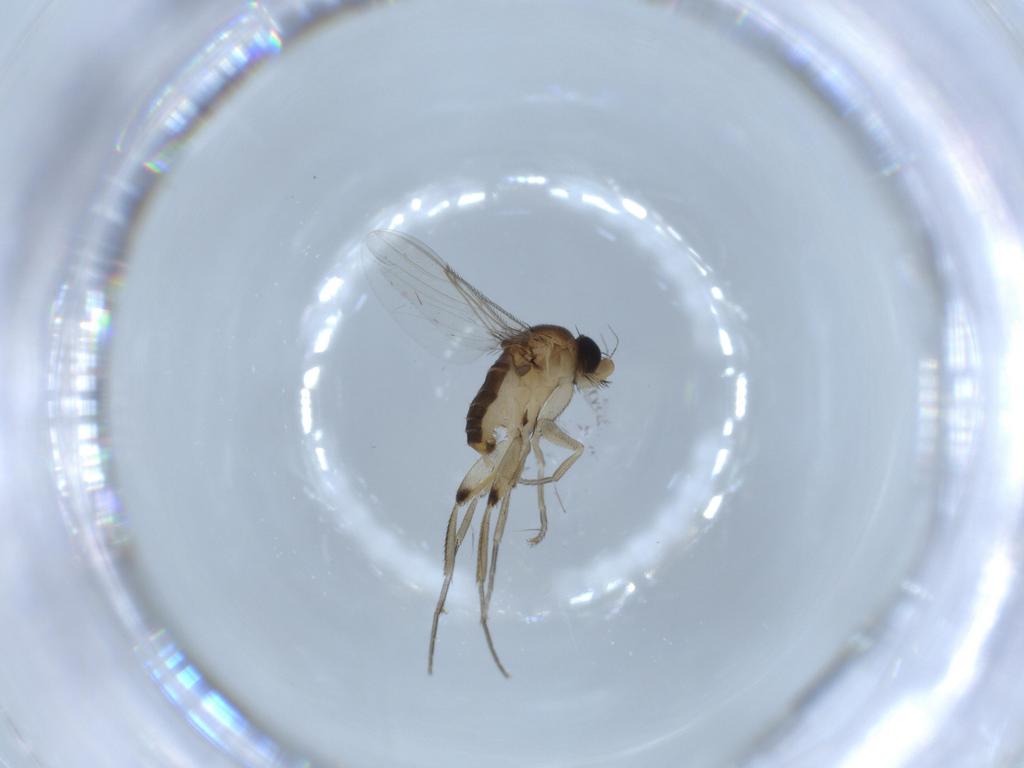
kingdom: Animalia
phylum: Arthropoda
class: Insecta
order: Diptera
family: Phoridae
